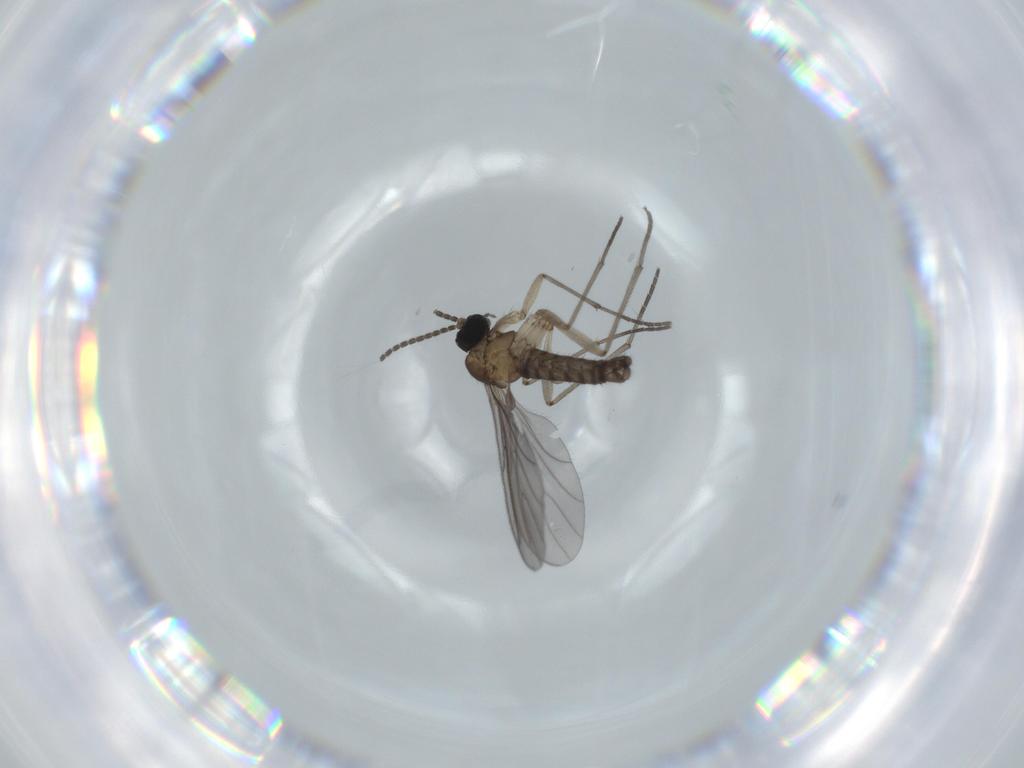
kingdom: Animalia
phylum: Arthropoda
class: Insecta
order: Diptera
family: Sciaridae
